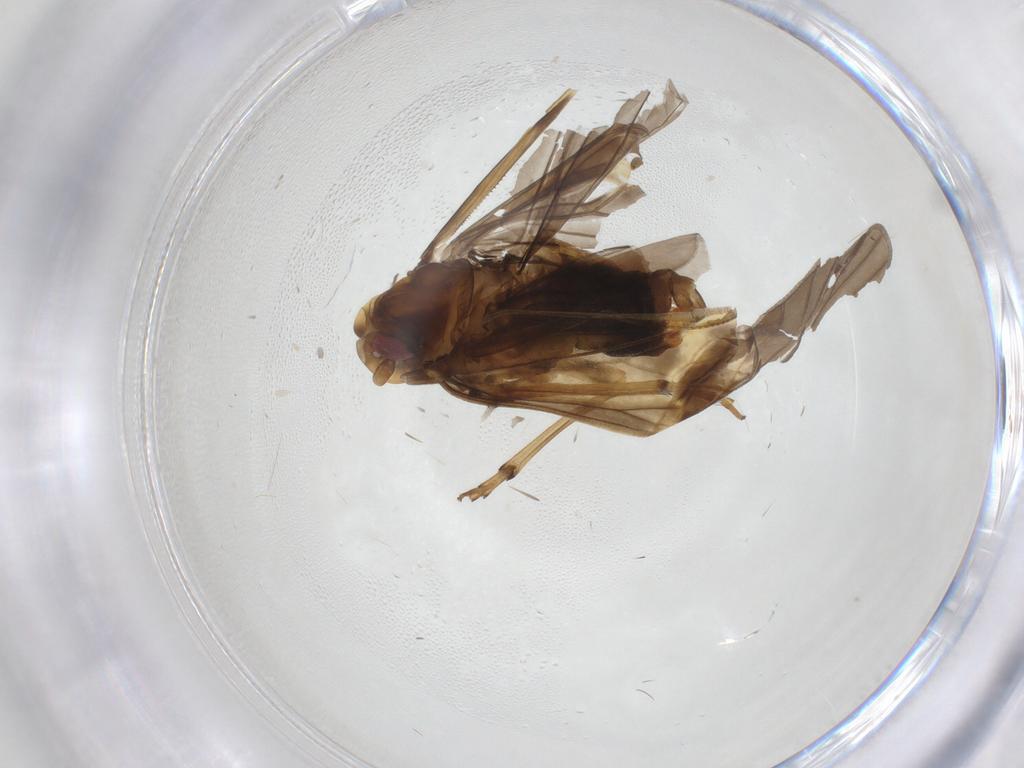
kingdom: Animalia
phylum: Arthropoda
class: Insecta
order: Hemiptera
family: Cixiidae
